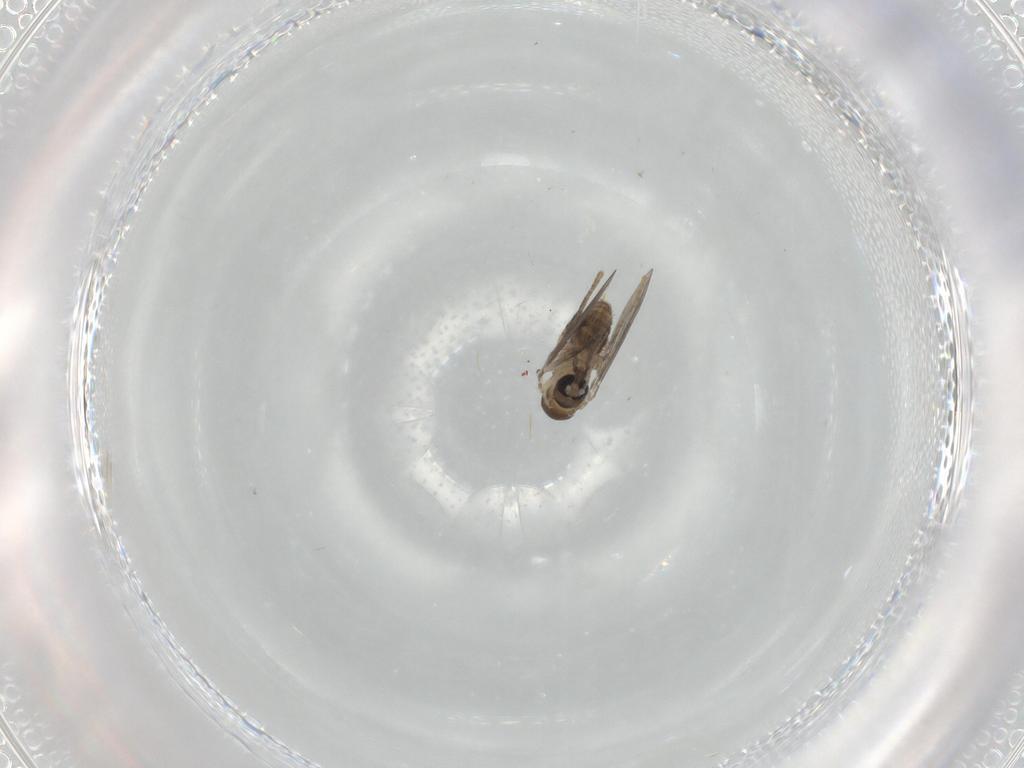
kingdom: Animalia
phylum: Arthropoda
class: Insecta
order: Diptera
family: Psychodidae
